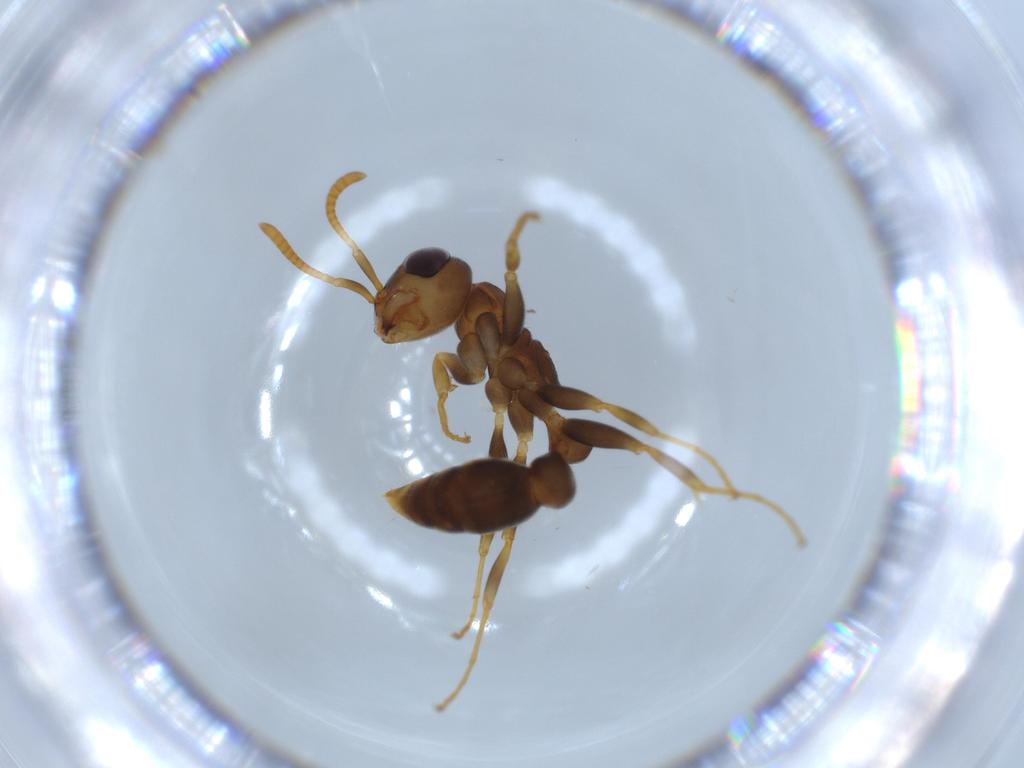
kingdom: Animalia
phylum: Arthropoda
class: Insecta
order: Hymenoptera
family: Formicidae
